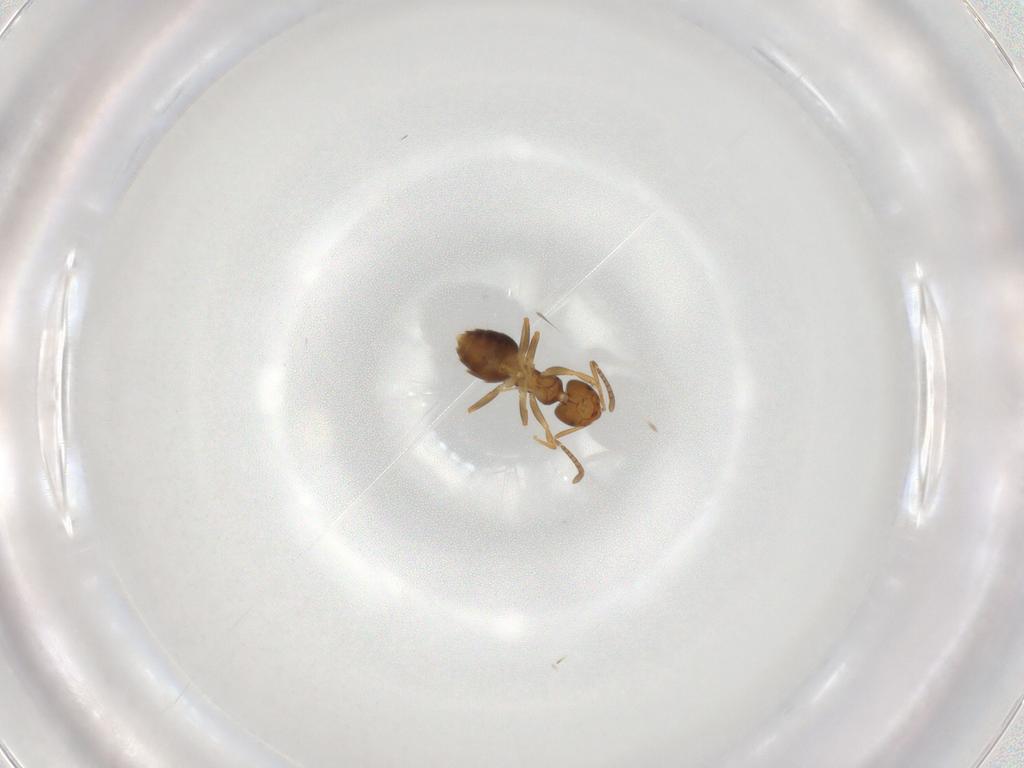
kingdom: Animalia
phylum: Arthropoda
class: Insecta
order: Hymenoptera
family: Formicidae
